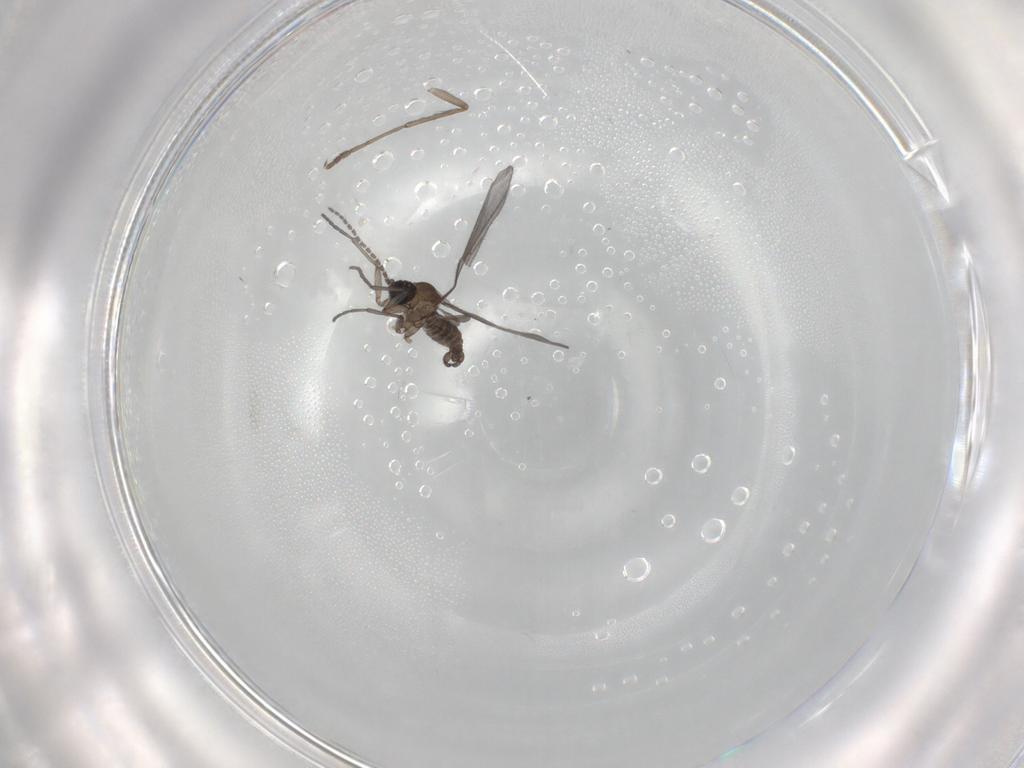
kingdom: Animalia
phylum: Arthropoda
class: Insecta
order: Diptera
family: Sciaridae
